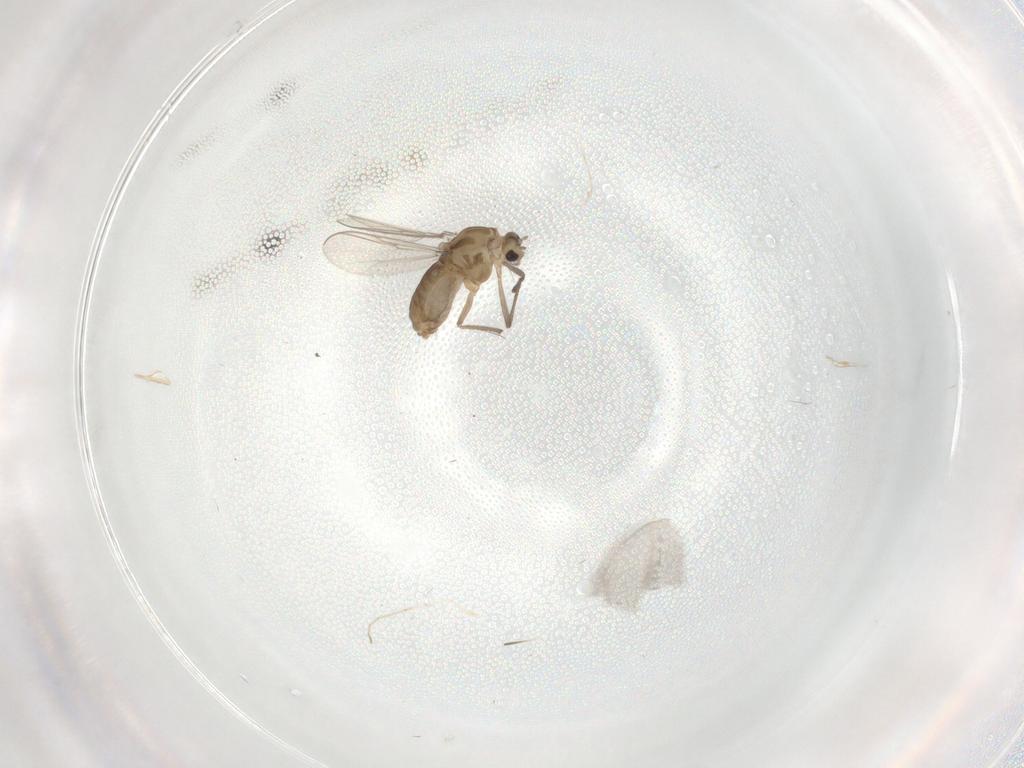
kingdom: Animalia
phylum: Arthropoda
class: Insecta
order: Diptera
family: Chironomidae
